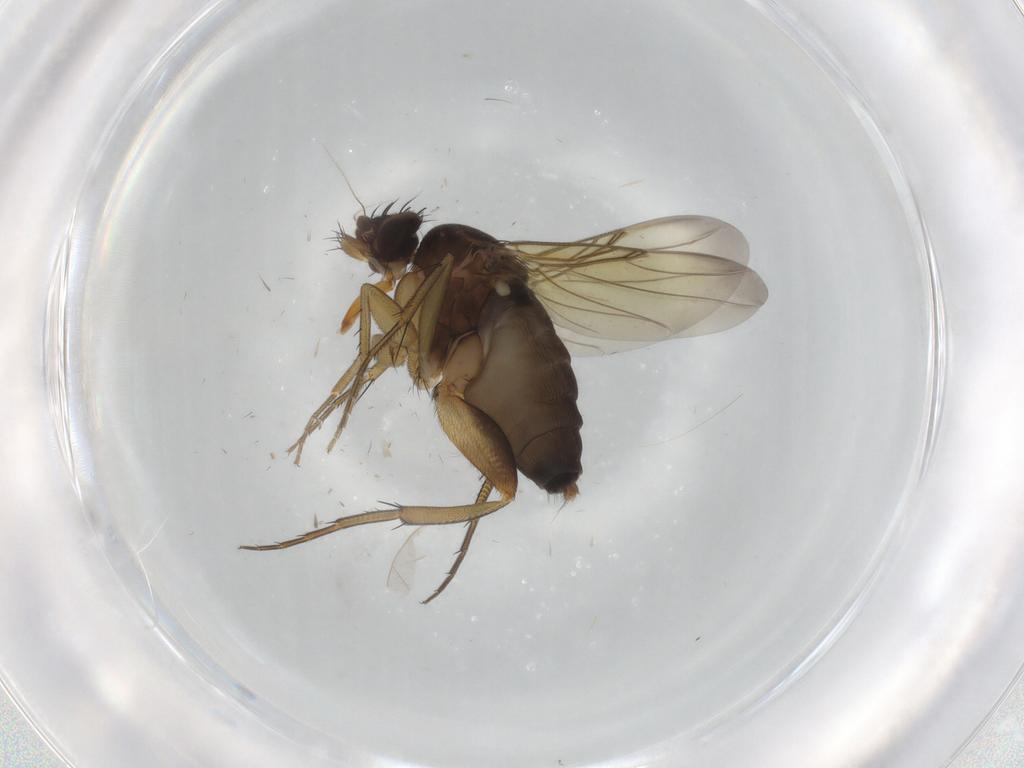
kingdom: Animalia
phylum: Arthropoda
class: Insecta
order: Diptera
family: Phoridae
